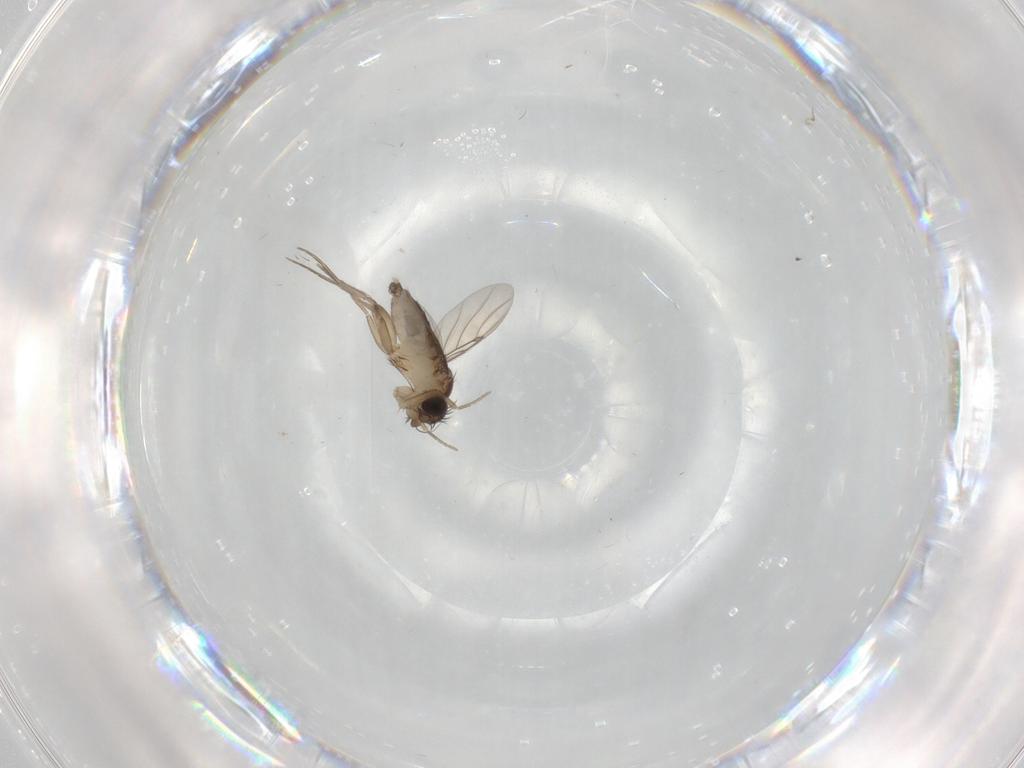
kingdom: Animalia
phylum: Arthropoda
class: Insecta
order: Diptera
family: Phoridae
